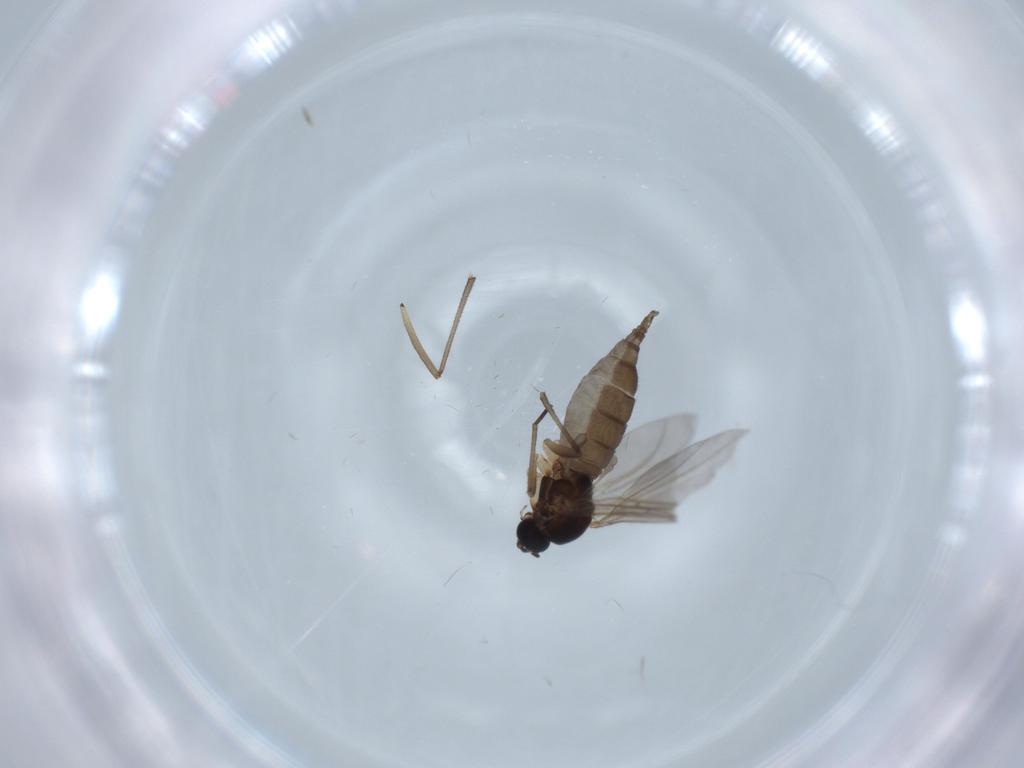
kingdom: Animalia
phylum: Arthropoda
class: Insecta
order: Diptera
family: Sciaridae
